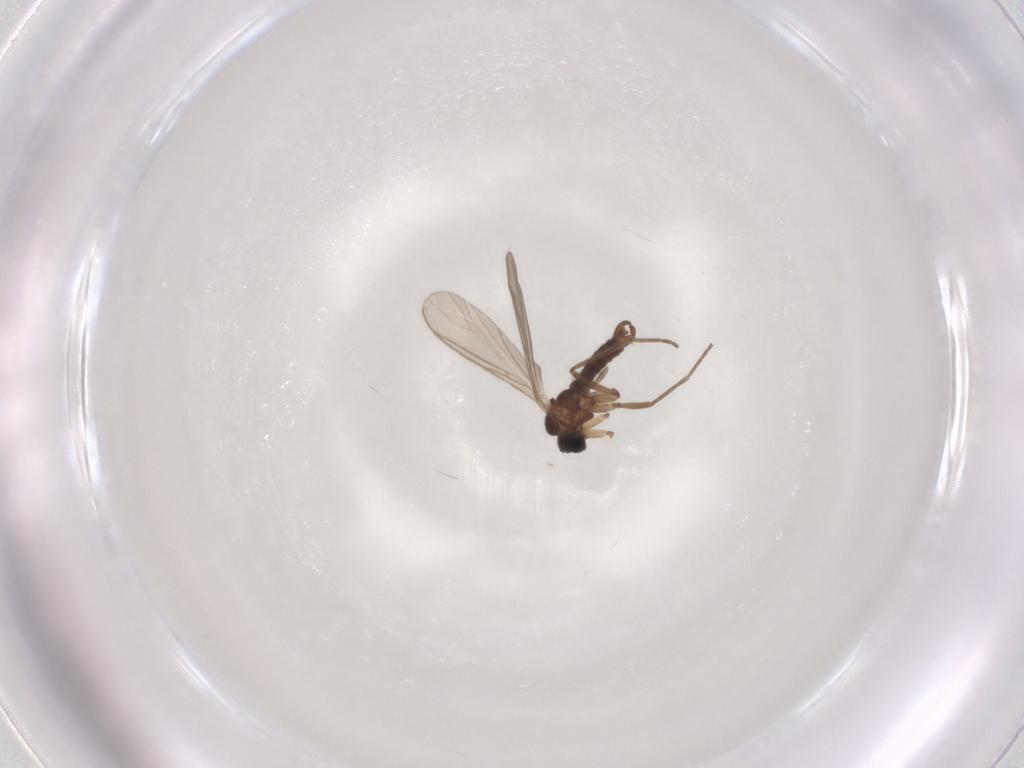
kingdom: Animalia
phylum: Arthropoda
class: Insecta
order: Diptera
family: Sciaridae
